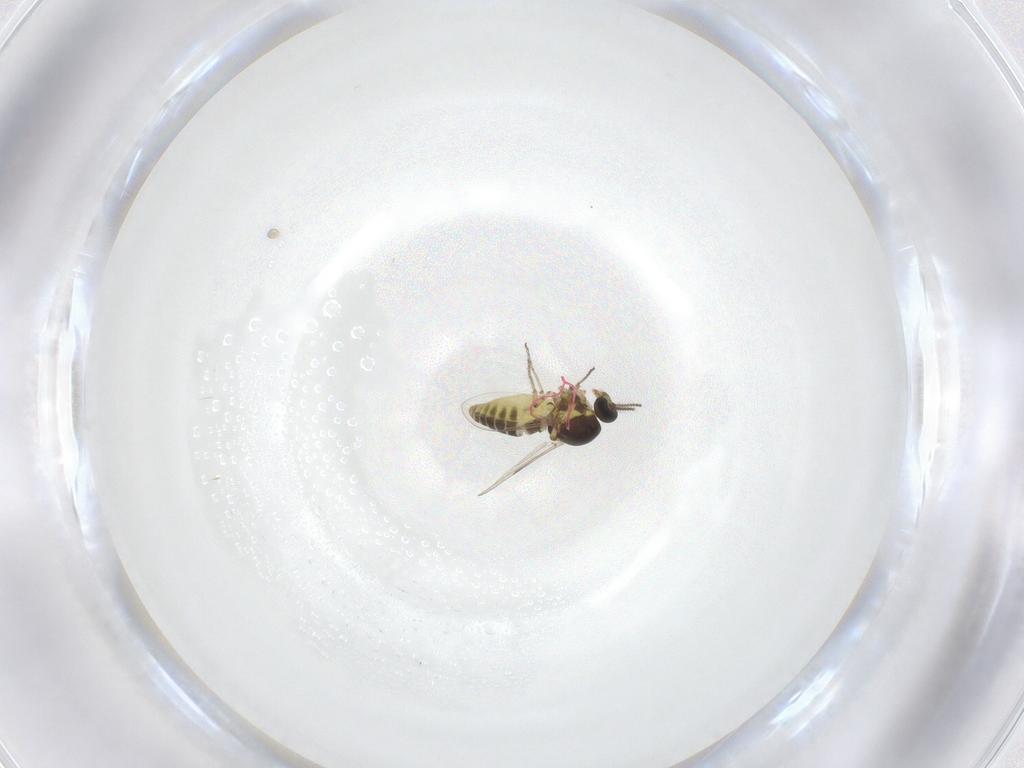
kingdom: Animalia
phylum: Arthropoda
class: Insecta
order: Diptera
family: Ceratopogonidae
